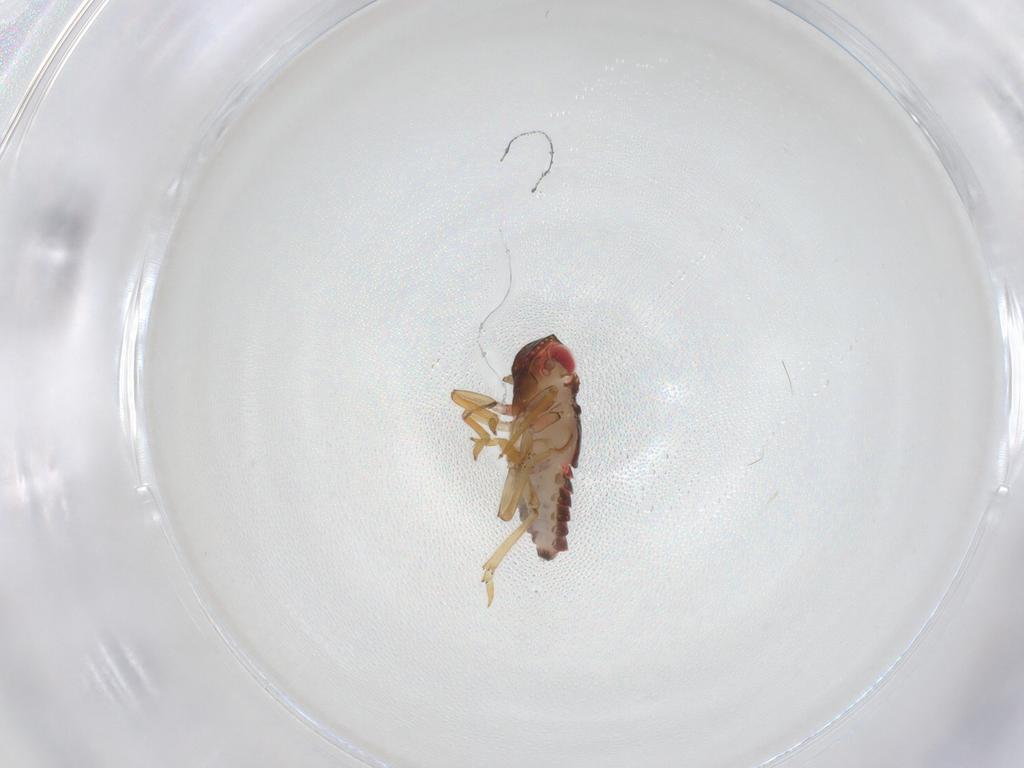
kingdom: Animalia
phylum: Arthropoda
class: Insecta
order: Hemiptera
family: Fulgoroidea_incertae_sedis
